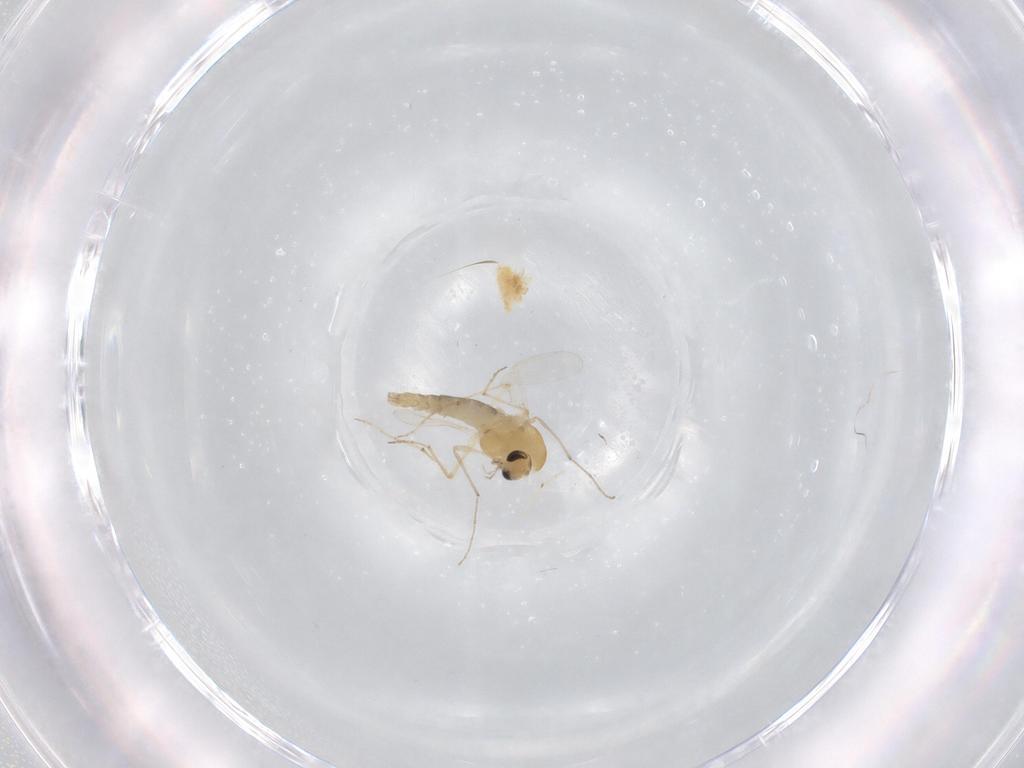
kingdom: Animalia
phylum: Arthropoda
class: Insecta
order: Diptera
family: Chironomidae
